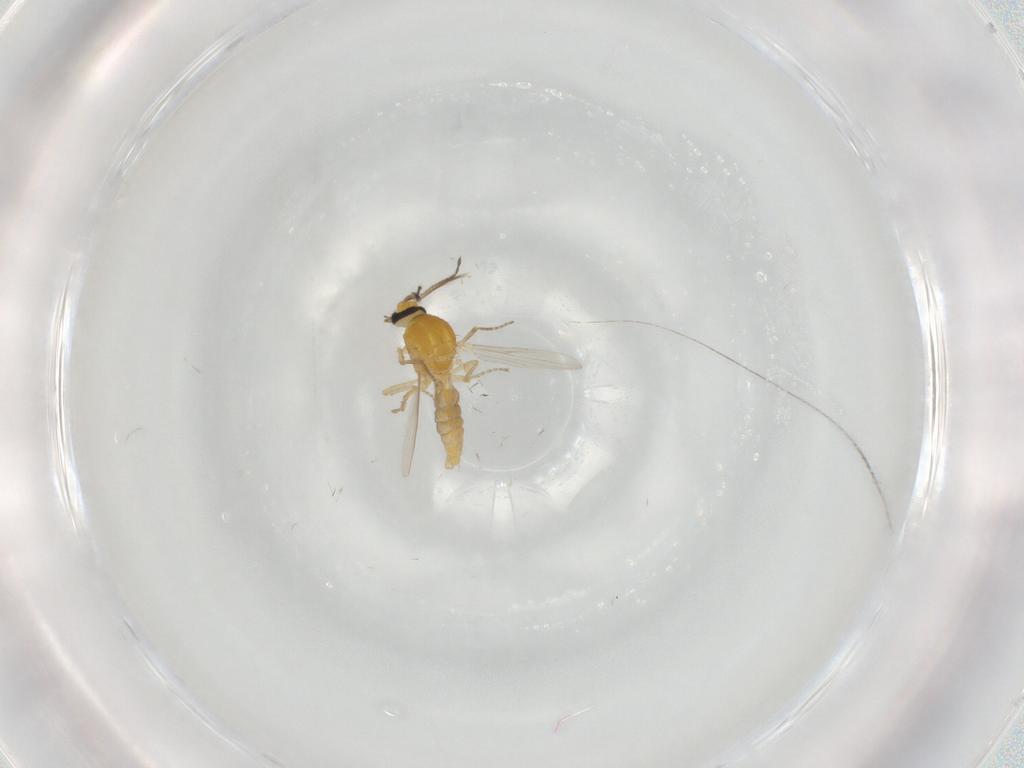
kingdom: Animalia
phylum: Arthropoda
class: Insecta
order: Diptera
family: Ceratopogonidae
